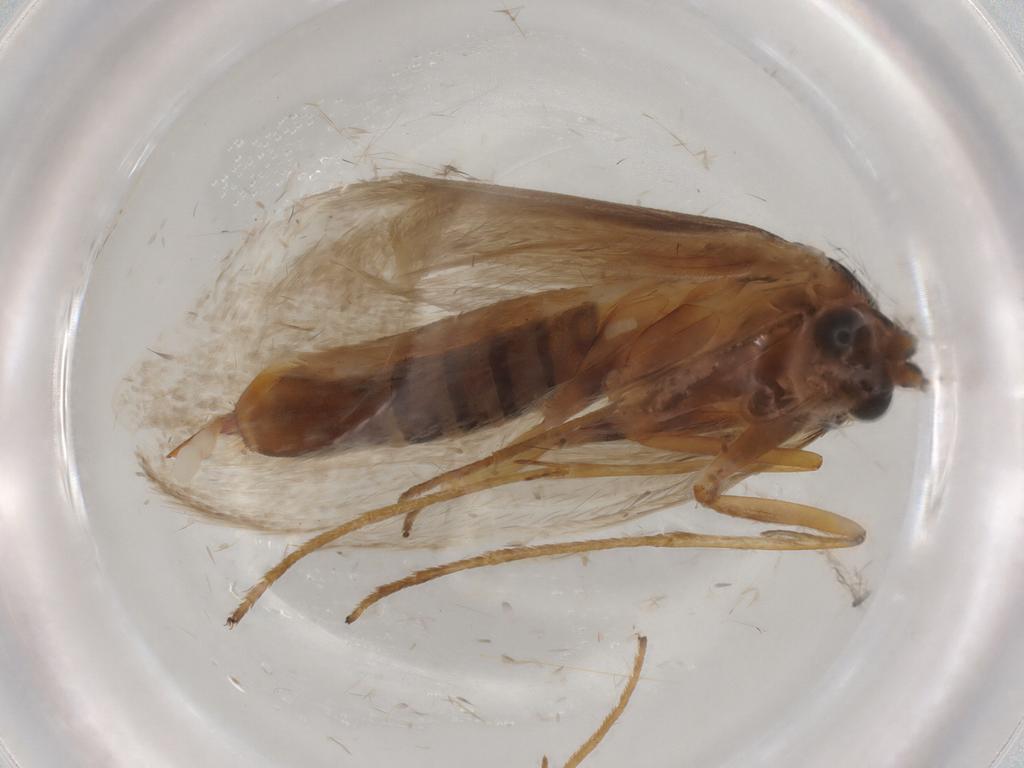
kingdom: Animalia
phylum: Arthropoda
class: Insecta
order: Lepidoptera
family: Adelidae
